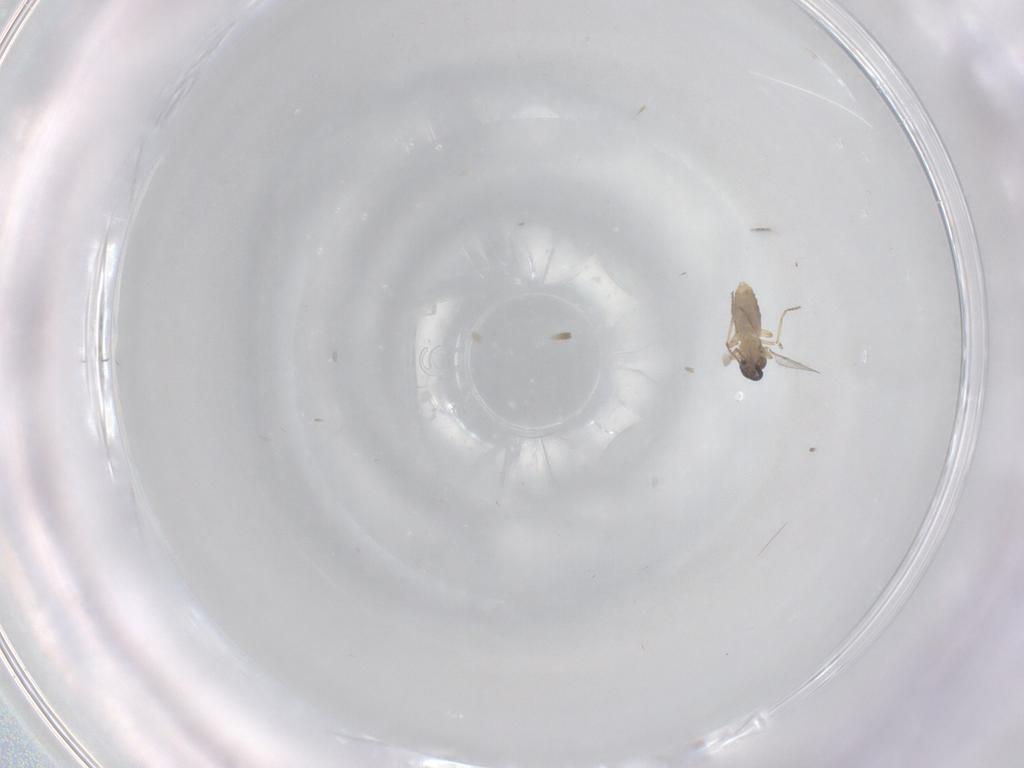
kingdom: Animalia
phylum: Arthropoda
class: Insecta
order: Diptera
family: Ceratopogonidae
